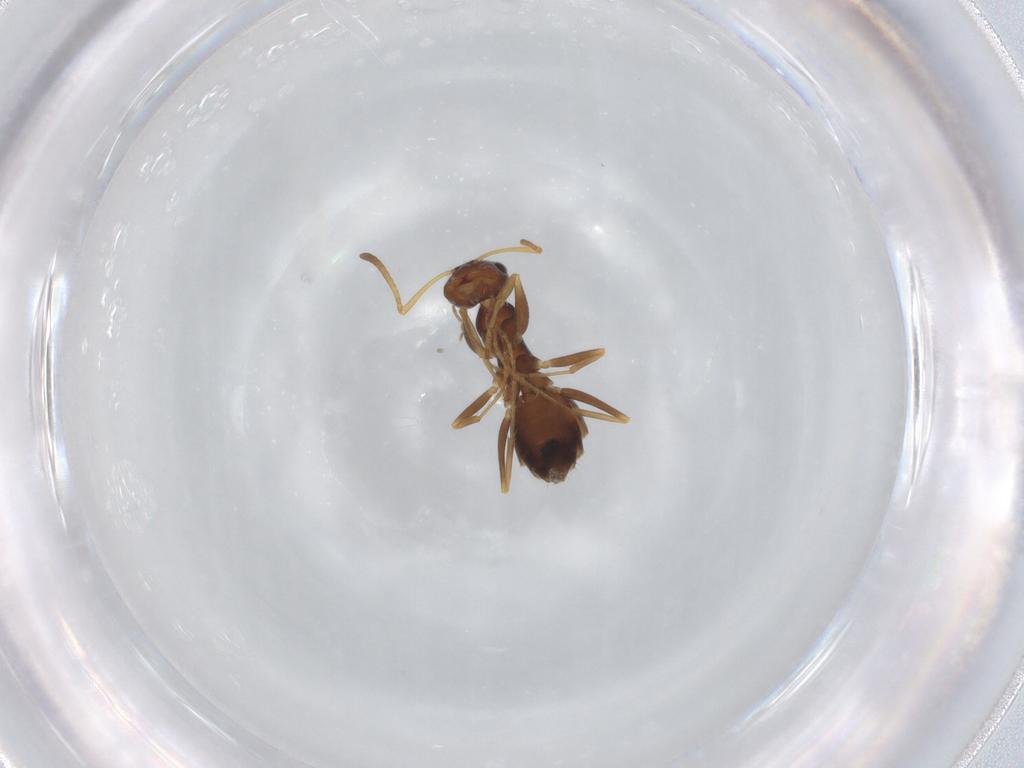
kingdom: Animalia
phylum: Arthropoda
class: Insecta
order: Hymenoptera
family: Formicidae
